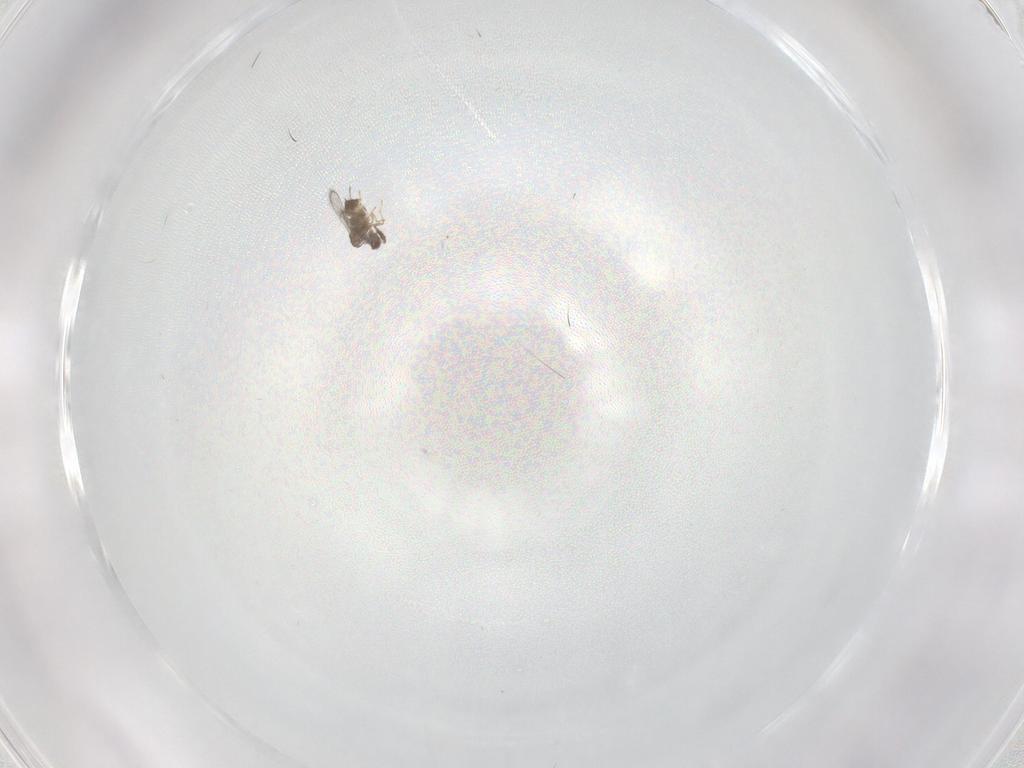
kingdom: Animalia
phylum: Arthropoda
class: Insecta
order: Hymenoptera
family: Trichogrammatidae
